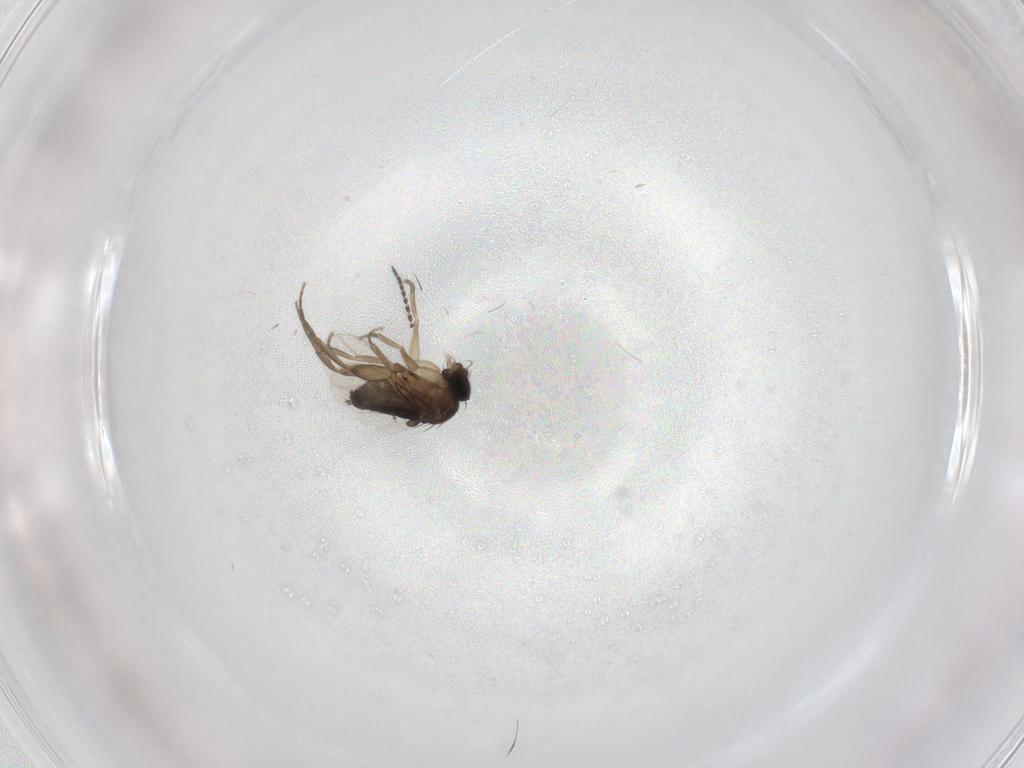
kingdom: Animalia
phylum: Arthropoda
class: Insecta
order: Diptera
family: Phoridae
